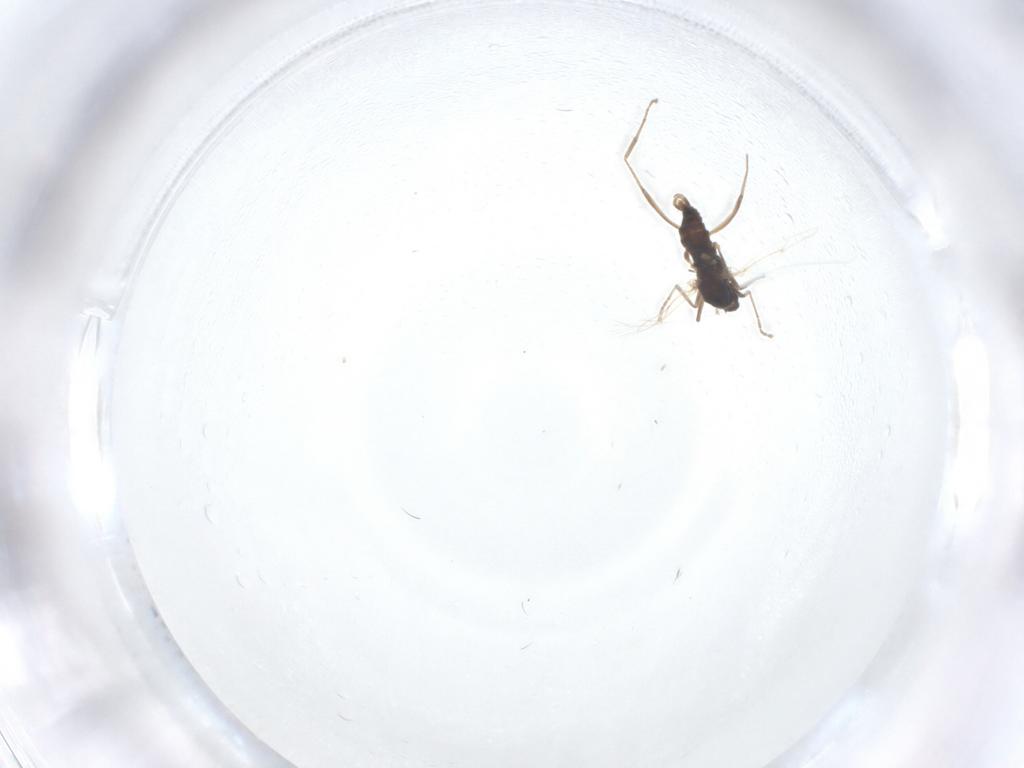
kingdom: Animalia
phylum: Arthropoda
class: Insecta
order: Diptera
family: Cecidomyiidae
